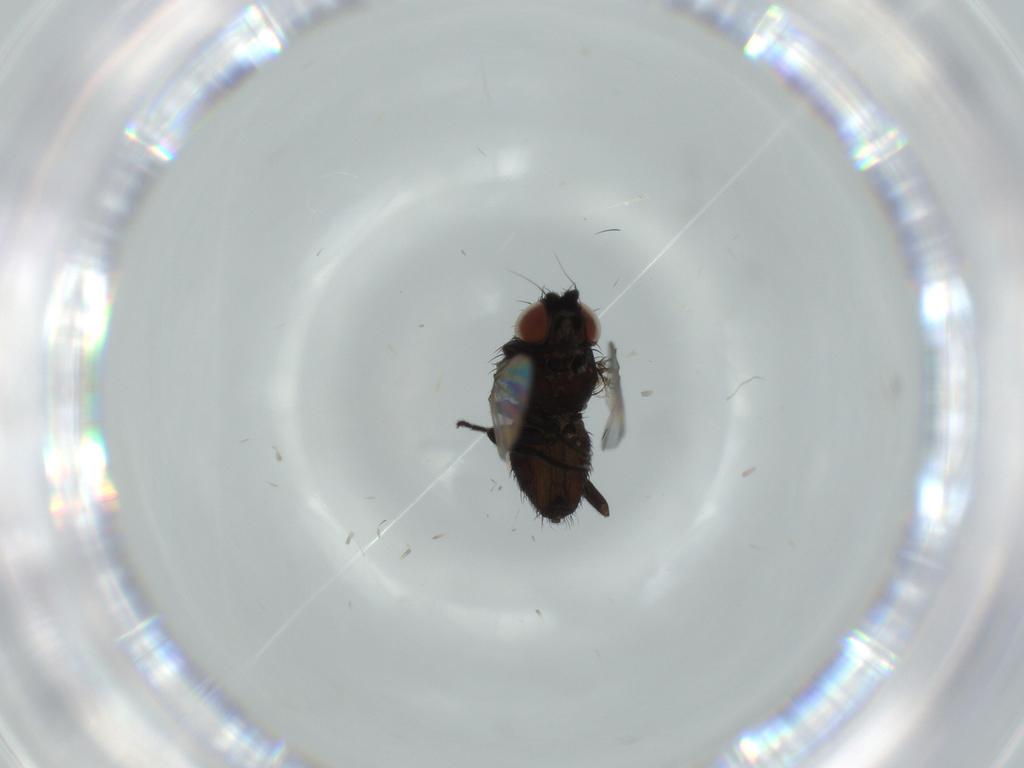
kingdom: Animalia
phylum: Arthropoda
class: Insecta
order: Diptera
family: Milichiidae
